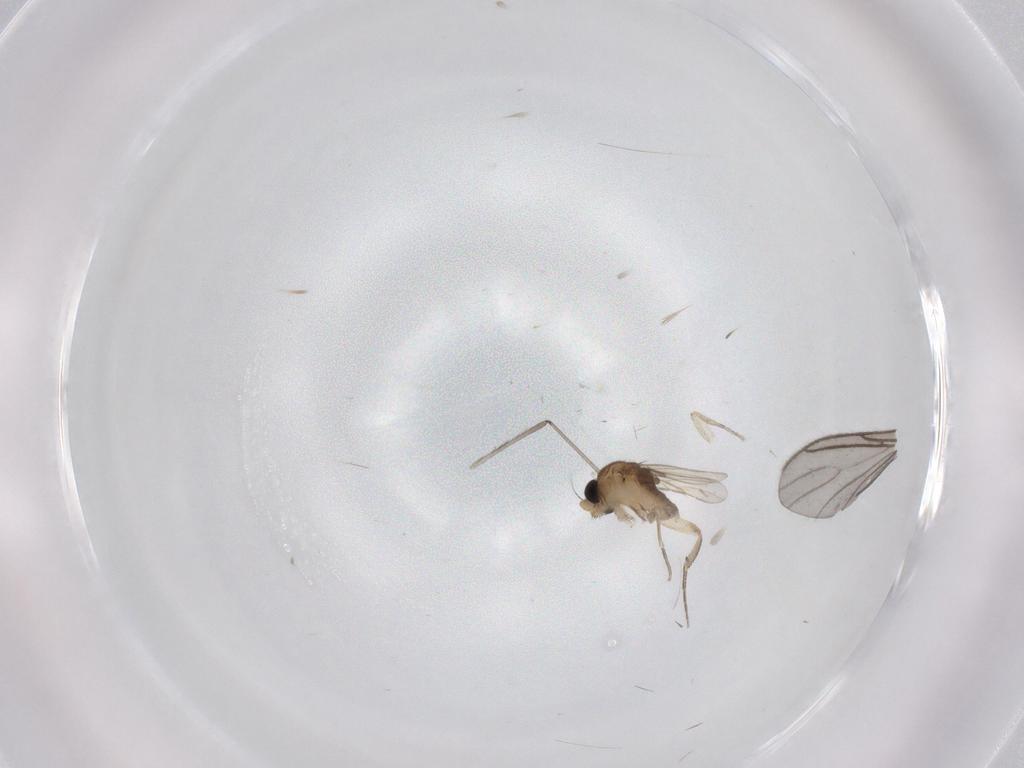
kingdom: Animalia
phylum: Arthropoda
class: Insecta
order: Diptera
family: Phoridae
